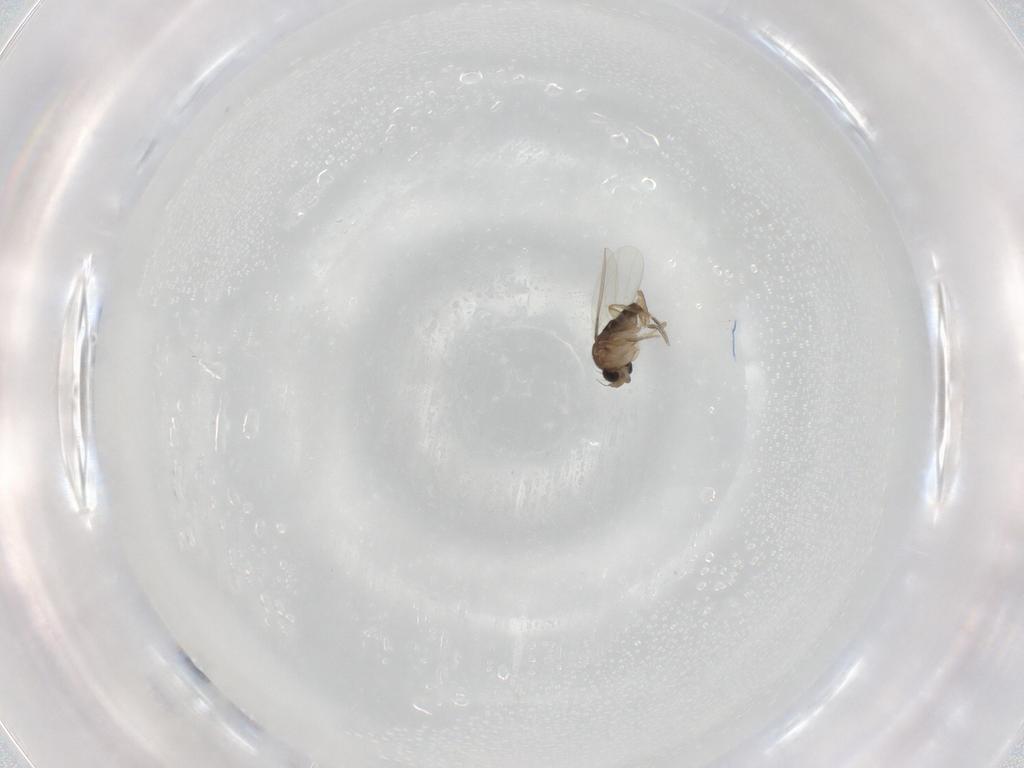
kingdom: Animalia
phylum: Arthropoda
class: Insecta
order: Diptera
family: Phoridae
